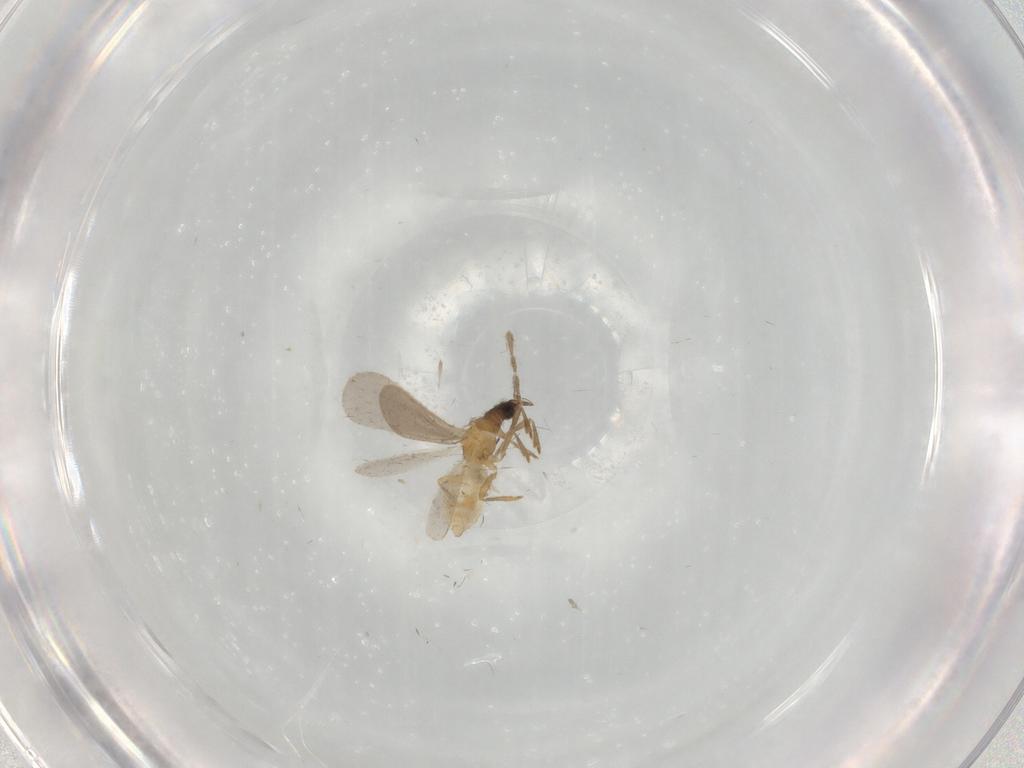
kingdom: Animalia
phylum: Arthropoda
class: Insecta
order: Hemiptera
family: Enicocephalidae
